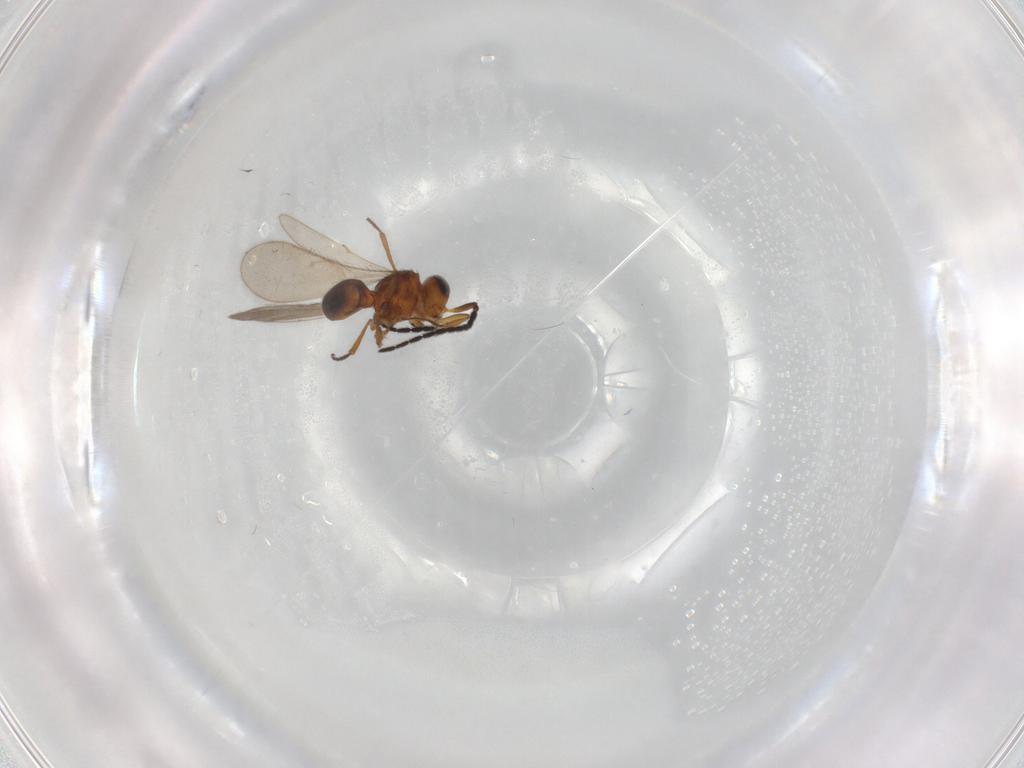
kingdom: Animalia
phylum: Arthropoda
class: Insecta
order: Hymenoptera
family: Scelionidae
